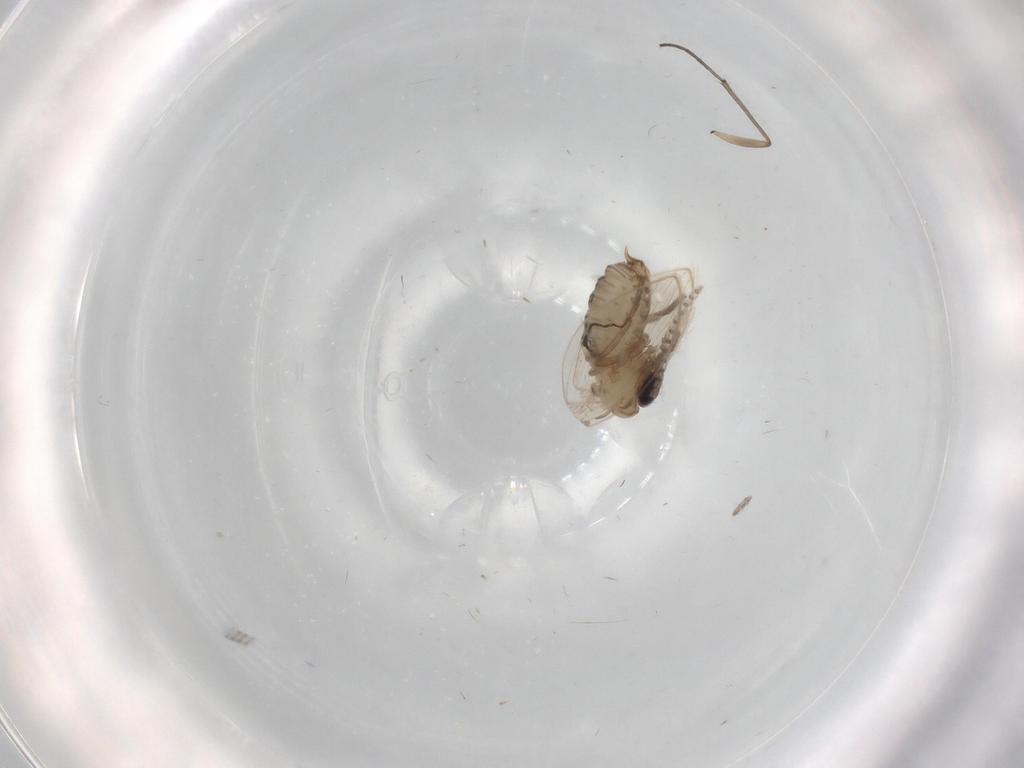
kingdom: Animalia
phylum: Arthropoda
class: Insecta
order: Diptera
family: Psychodidae
